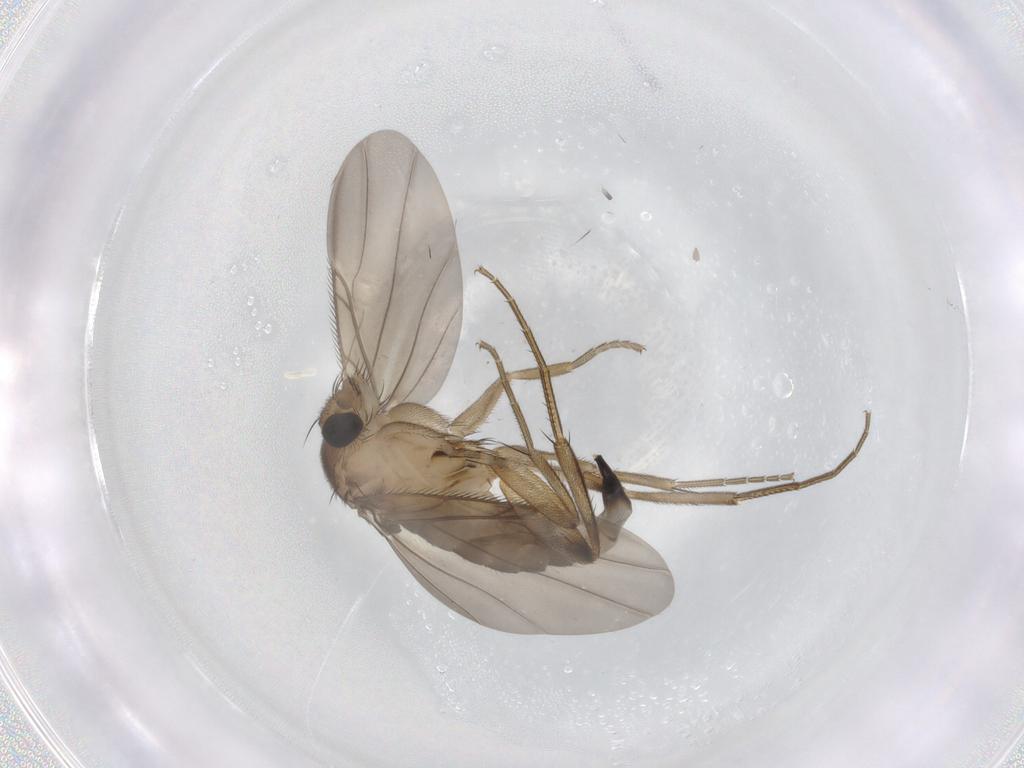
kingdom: Animalia
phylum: Arthropoda
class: Insecta
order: Diptera
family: Phoridae
